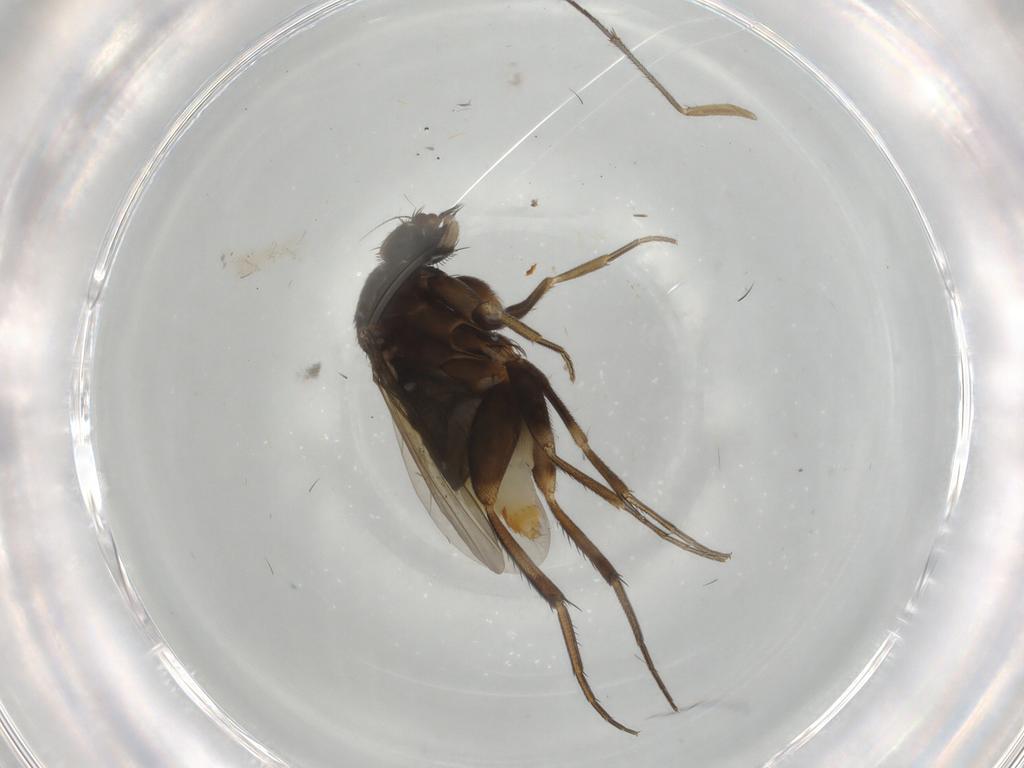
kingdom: Animalia
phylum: Arthropoda
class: Insecta
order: Diptera
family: Phoridae
